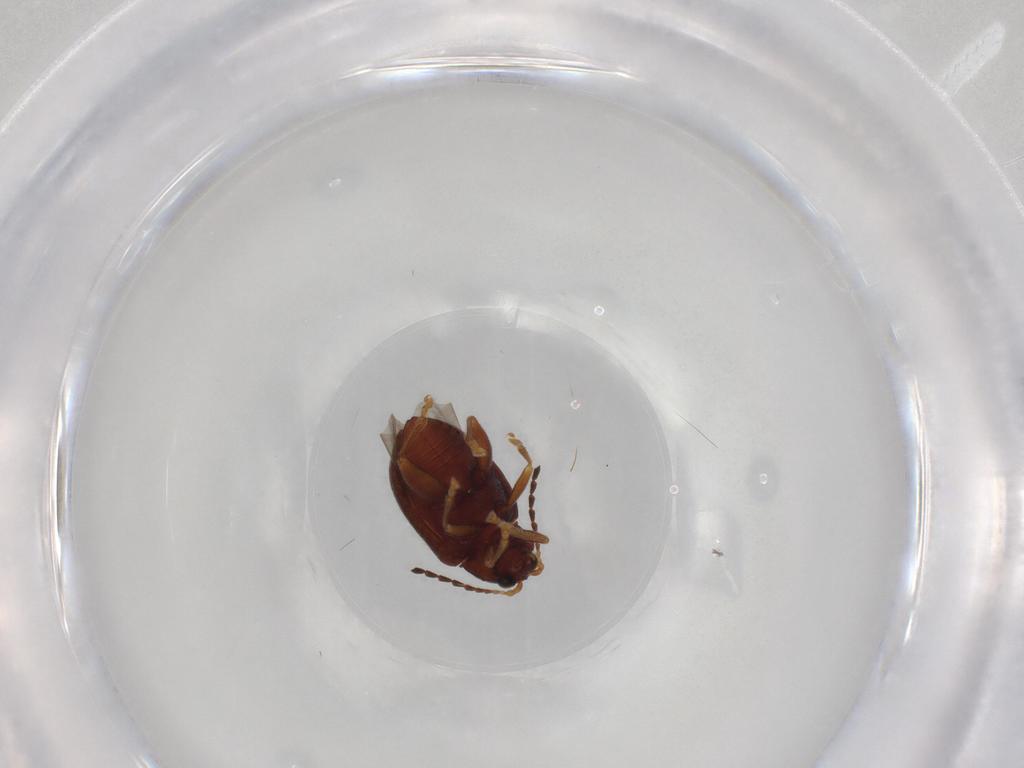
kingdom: Animalia
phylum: Arthropoda
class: Insecta
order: Coleoptera
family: Chrysomelidae
